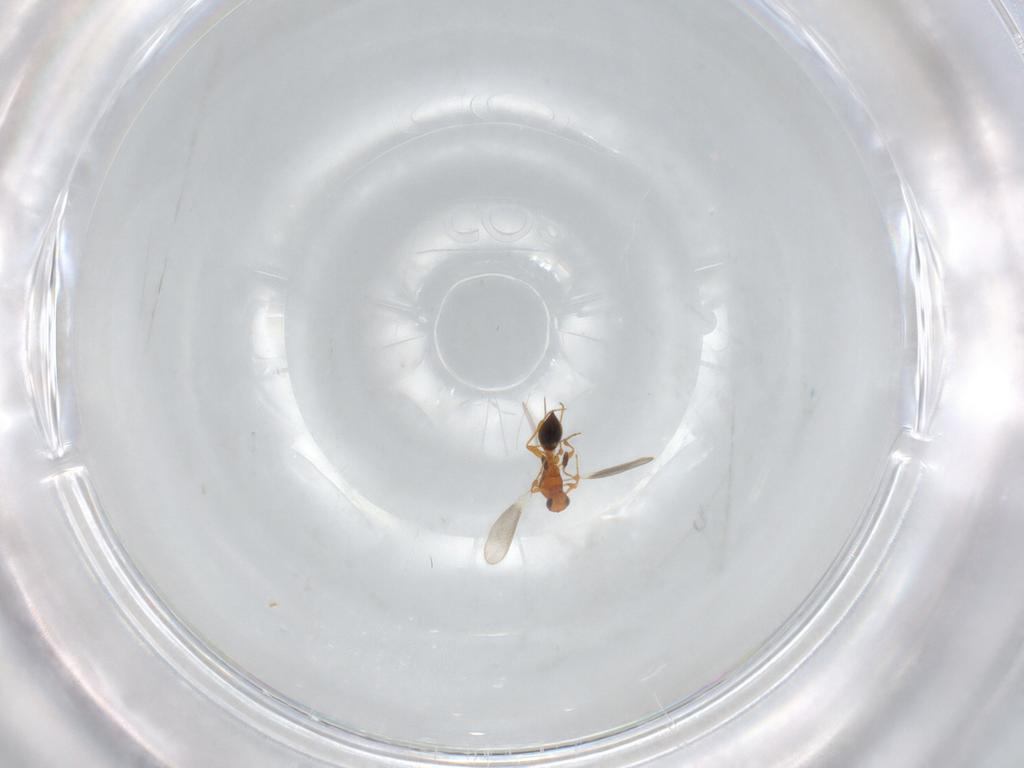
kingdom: Animalia
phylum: Arthropoda
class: Insecta
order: Hymenoptera
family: Platygastridae
